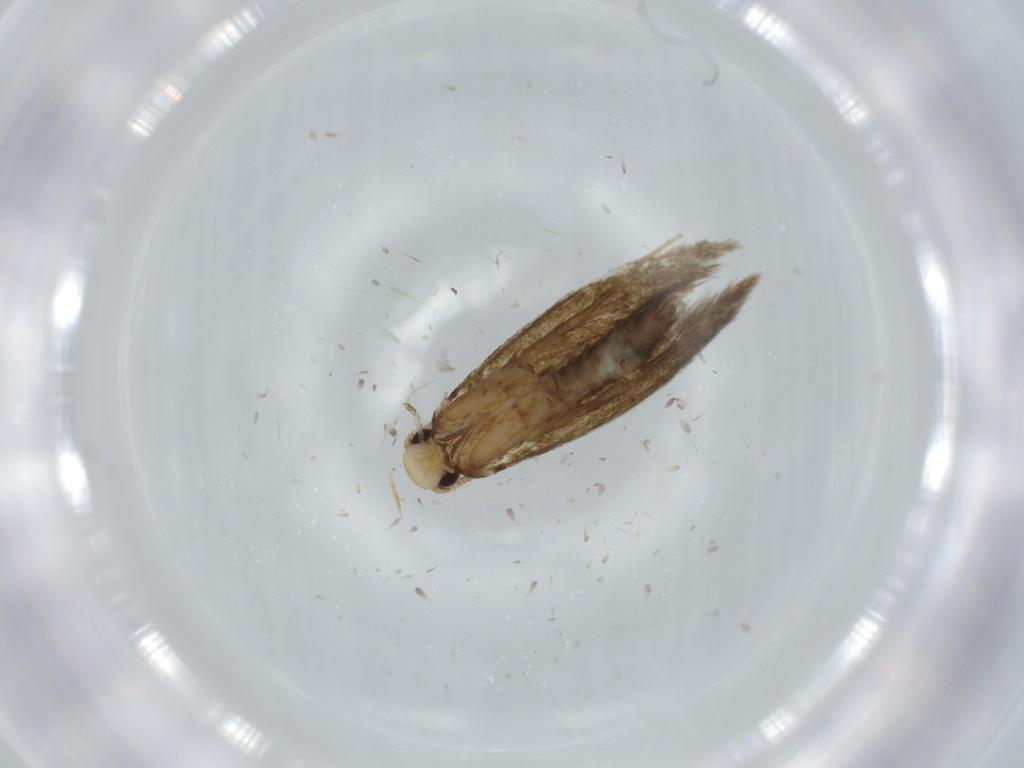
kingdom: Animalia
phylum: Arthropoda
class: Insecta
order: Lepidoptera
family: Tineidae
